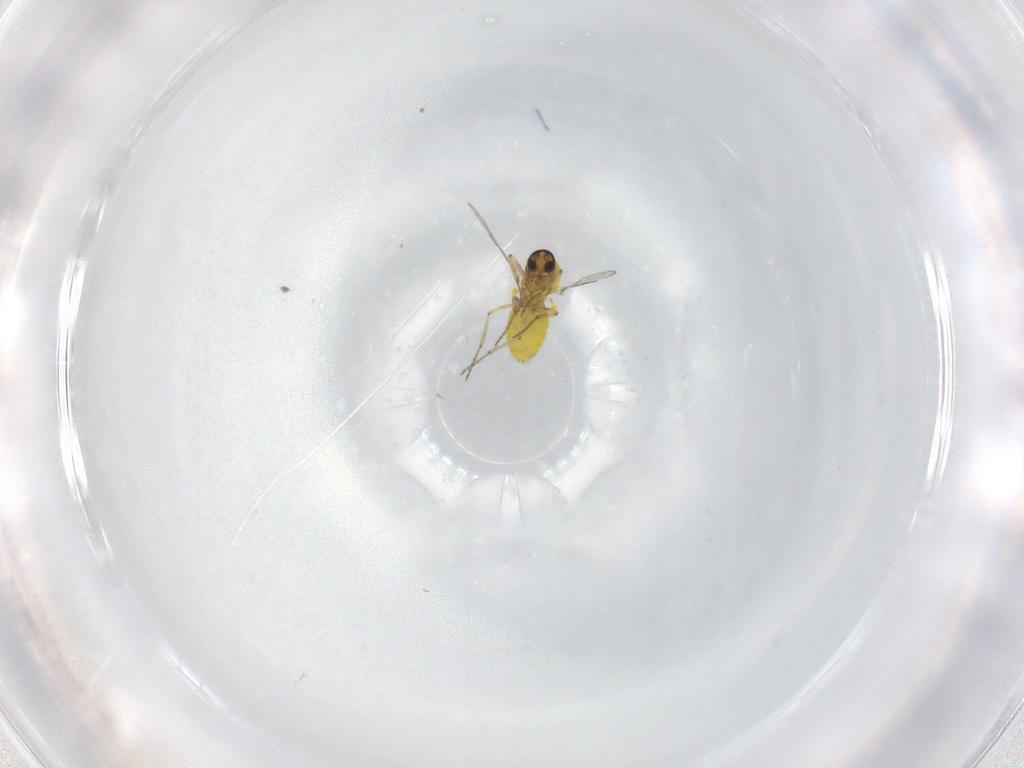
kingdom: Animalia
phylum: Arthropoda
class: Insecta
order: Diptera
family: Ceratopogonidae
